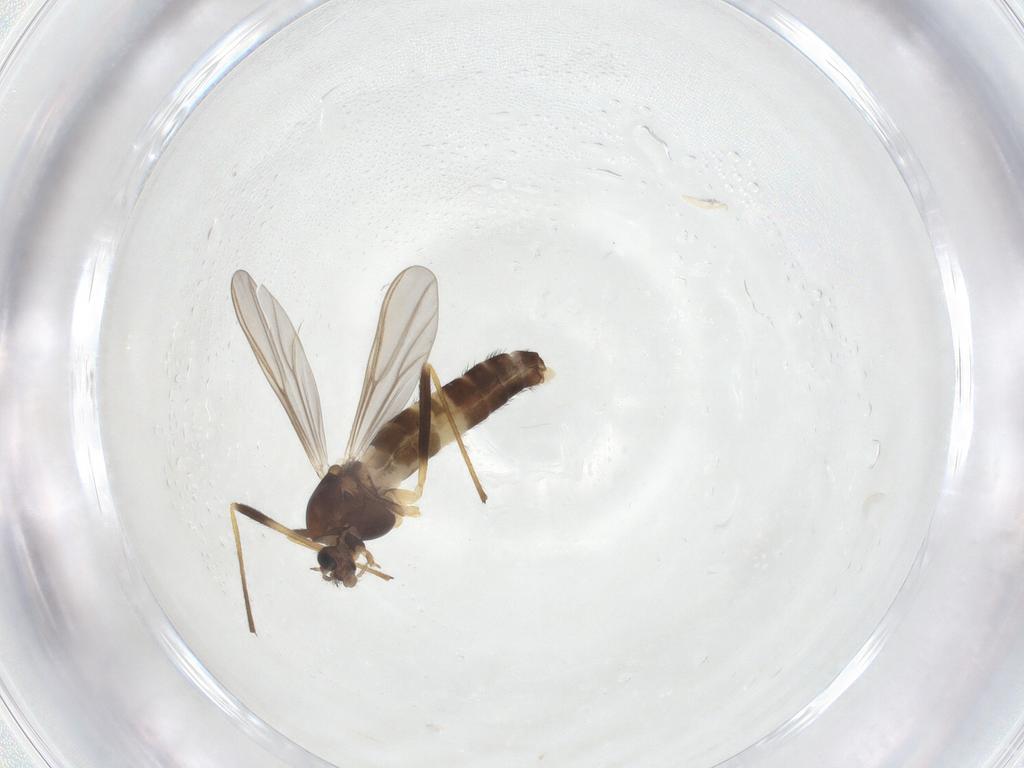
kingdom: Animalia
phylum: Arthropoda
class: Insecta
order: Diptera
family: Chironomidae
